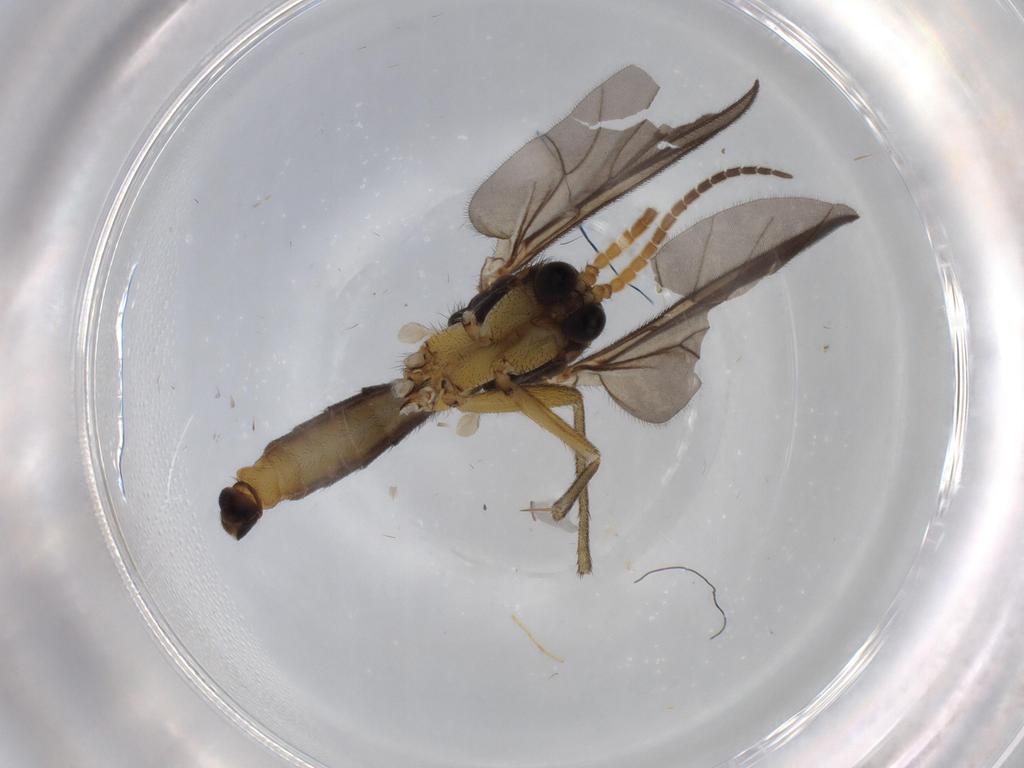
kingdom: Animalia
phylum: Arthropoda
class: Insecta
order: Diptera
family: Mycetophilidae
